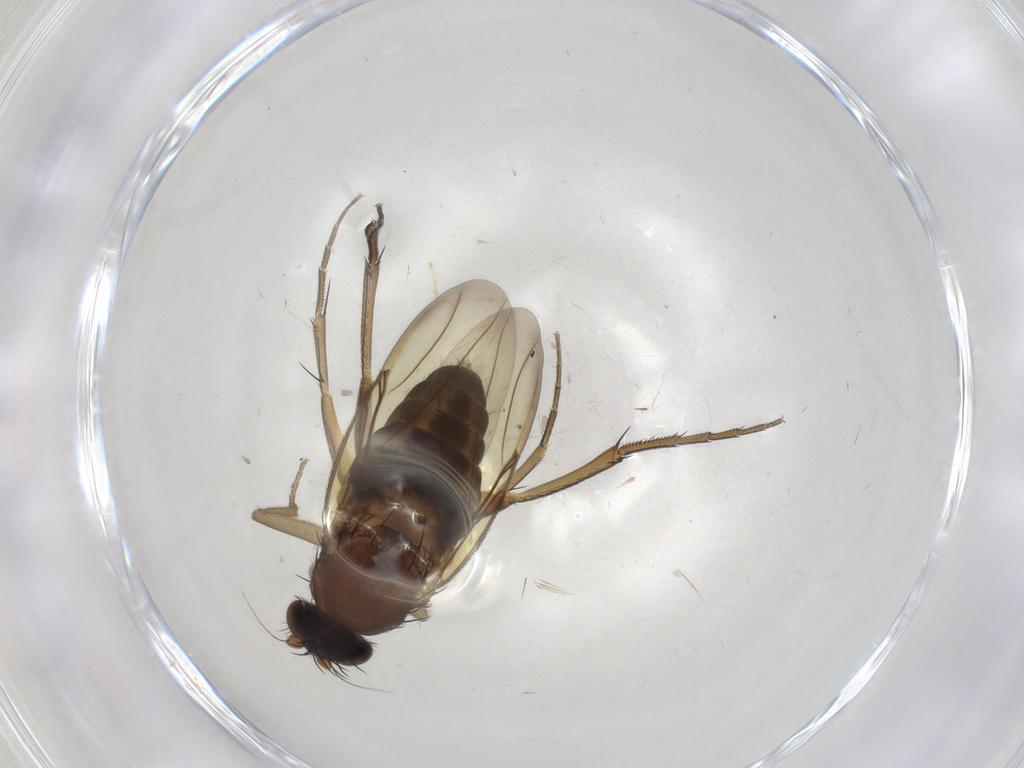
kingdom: Animalia
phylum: Arthropoda
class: Insecta
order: Diptera
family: Phoridae
